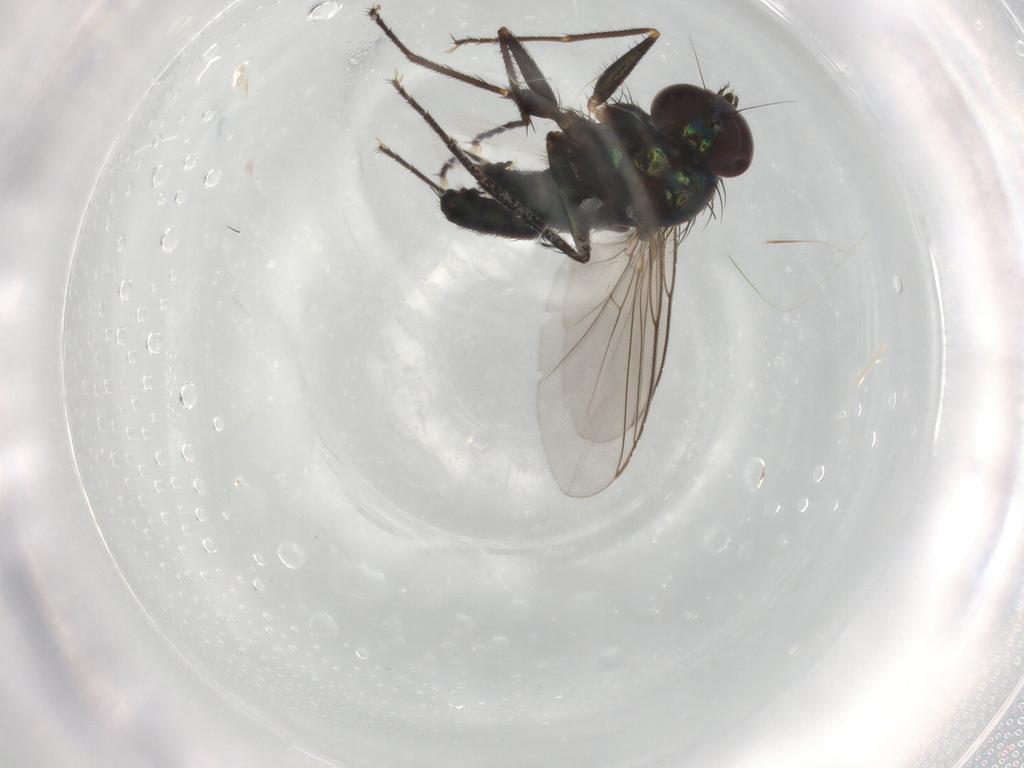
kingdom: Animalia
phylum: Arthropoda
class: Insecta
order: Diptera
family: Dolichopodidae
